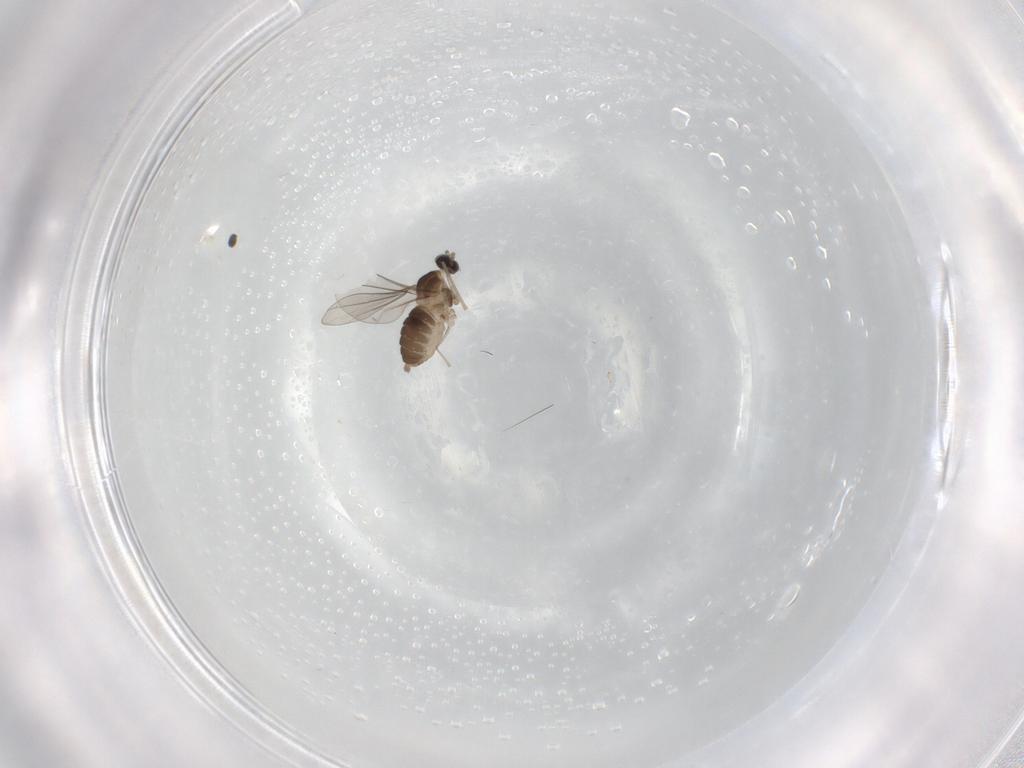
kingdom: Animalia
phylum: Arthropoda
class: Insecta
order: Diptera
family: Cecidomyiidae
